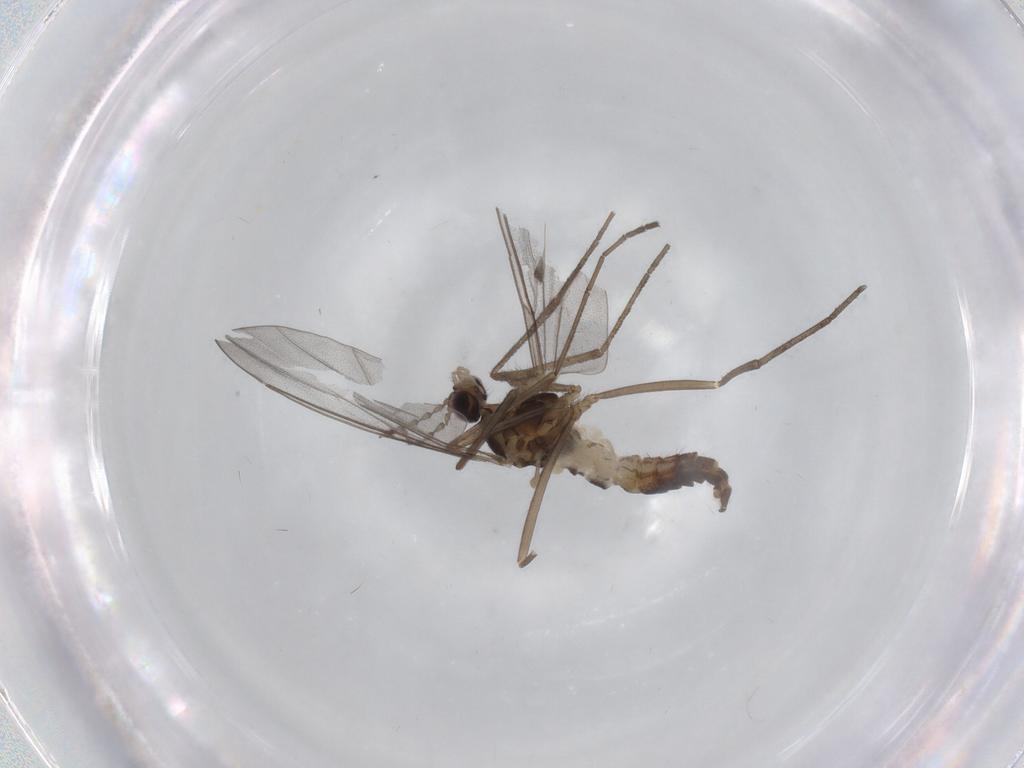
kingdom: Animalia
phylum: Arthropoda
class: Insecta
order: Diptera
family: Cecidomyiidae
